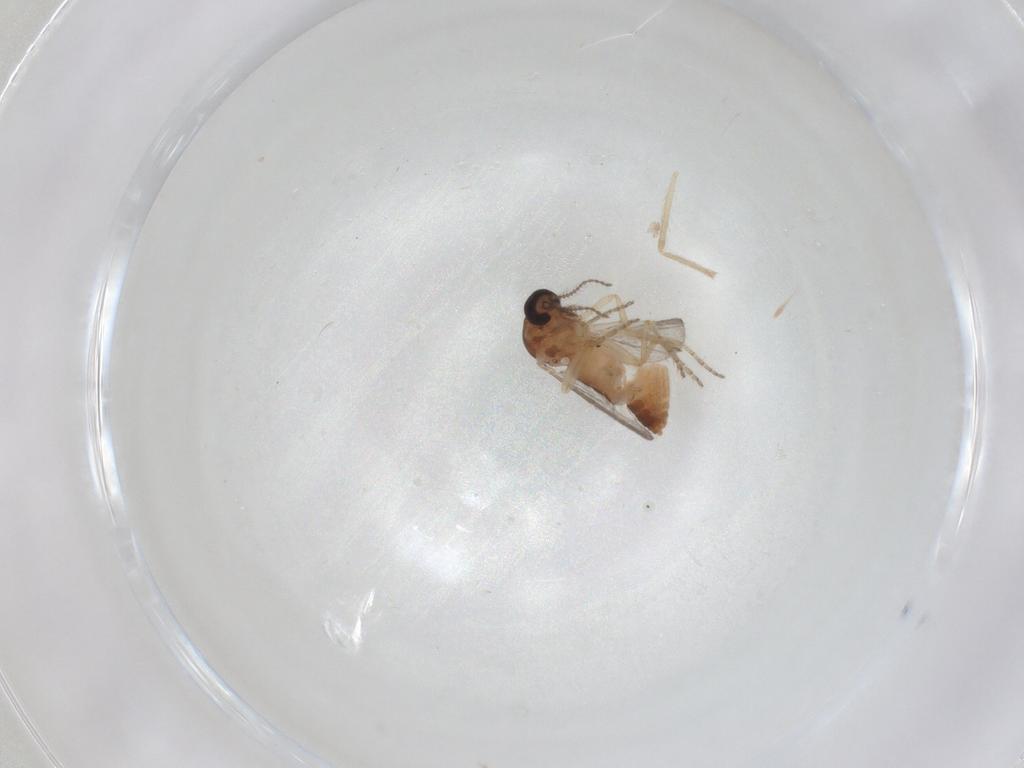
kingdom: Animalia
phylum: Arthropoda
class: Insecta
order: Diptera
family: Ceratopogonidae
